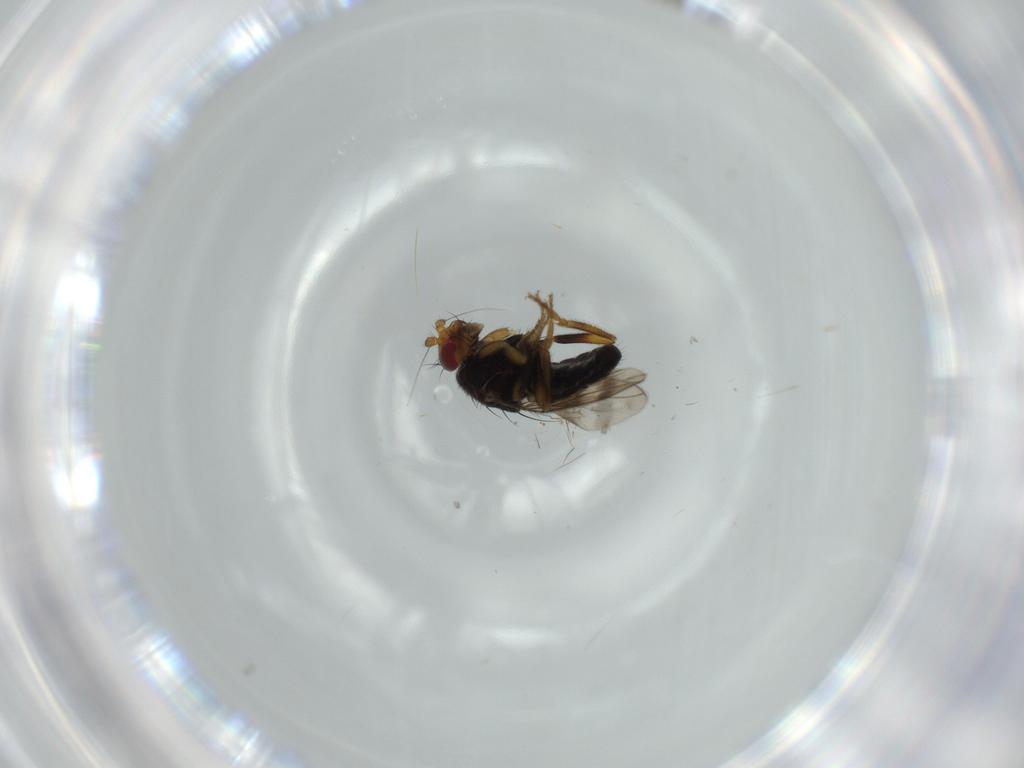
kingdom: Animalia
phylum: Arthropoda
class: Insecta
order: Diptera
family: Sphaeroceridae
